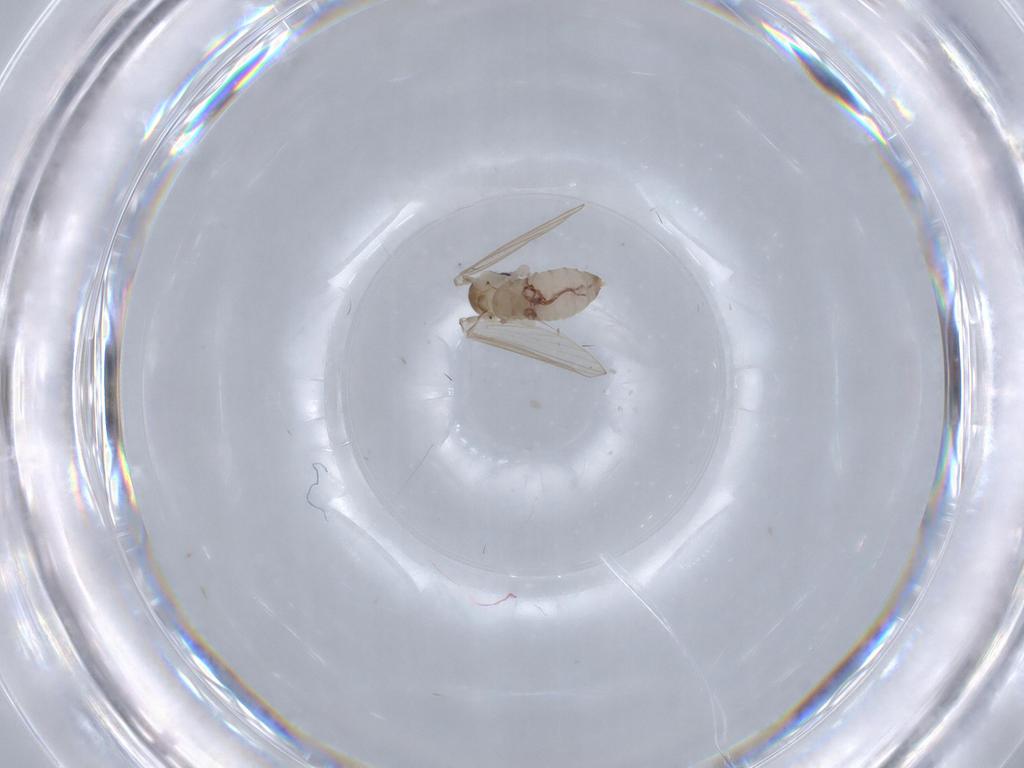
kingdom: Animalia
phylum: Arthropoda
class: Insecta
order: Diptera
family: Psychodidae
